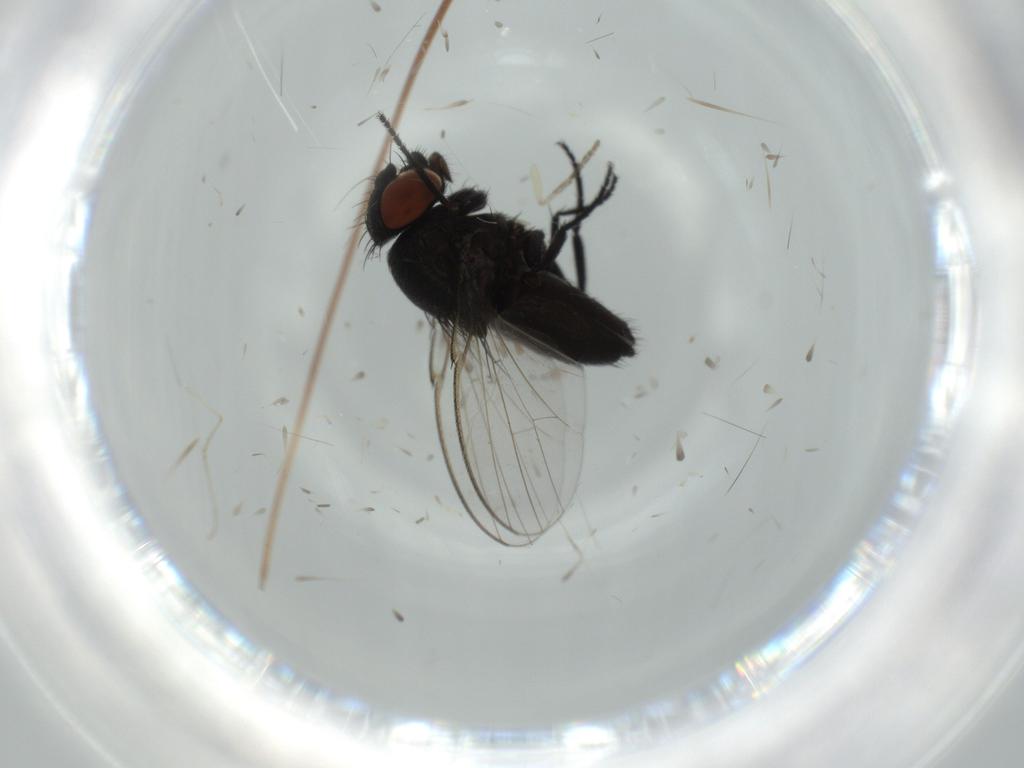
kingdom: Animalia
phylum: Arthropoda
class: Insecta
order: Diptera
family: Milichiidae
